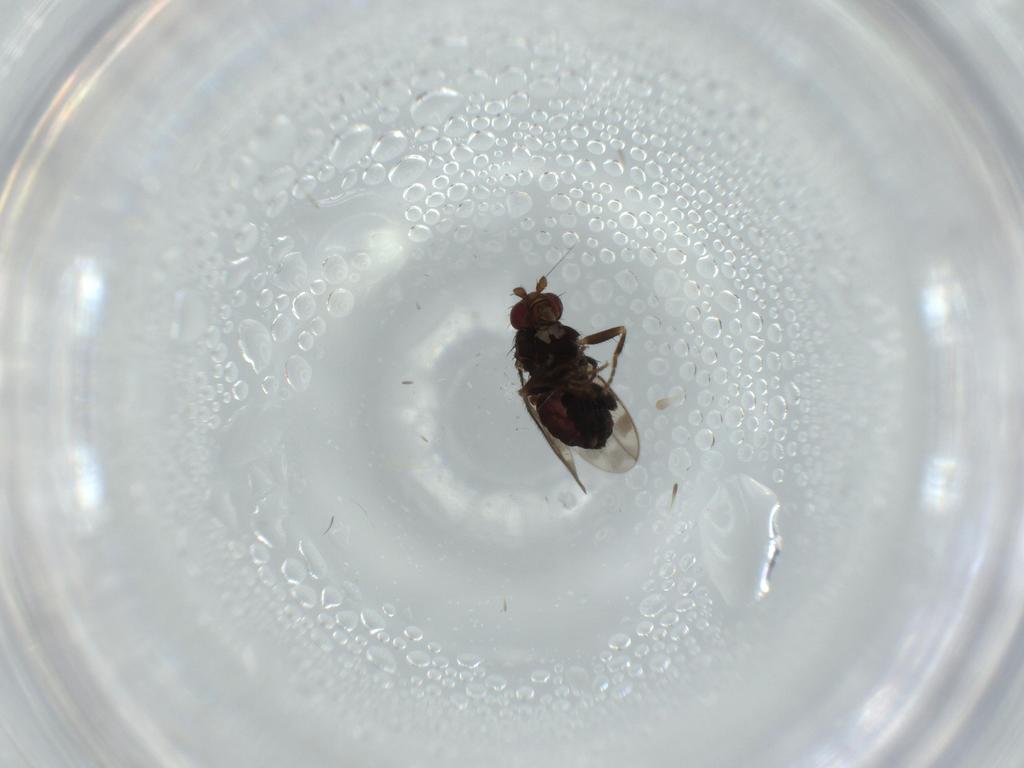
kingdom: Animalia
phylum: Arthropoda
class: Insecta
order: Diptera
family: Sphaeroceridae
